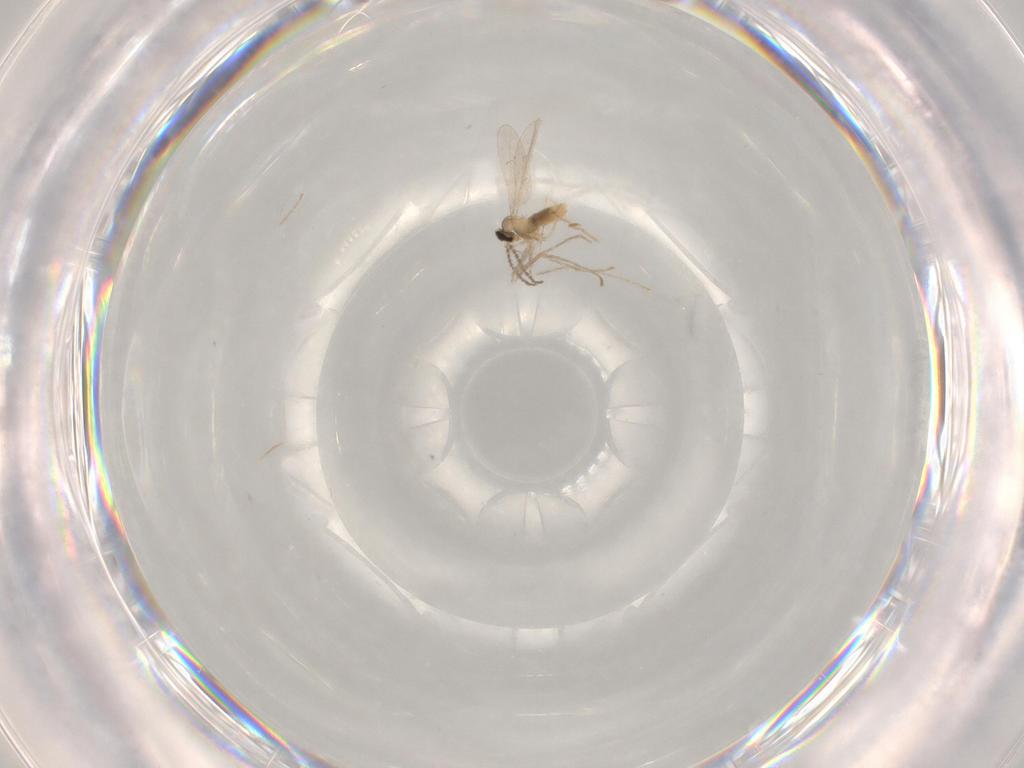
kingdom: Animalia
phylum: Arthropoda
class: Insecta
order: Diptera
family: Cecidomyiidae
